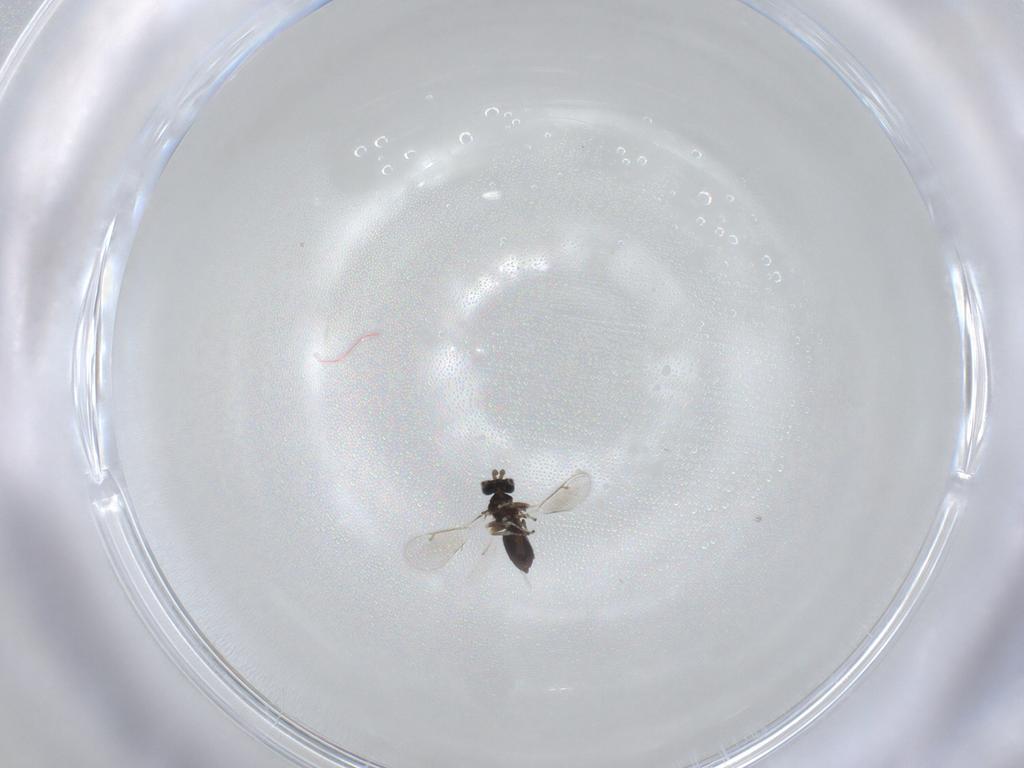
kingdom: Animalia
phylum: Arthropoda
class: Insecta
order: Hymenoptera
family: Eulophidae
